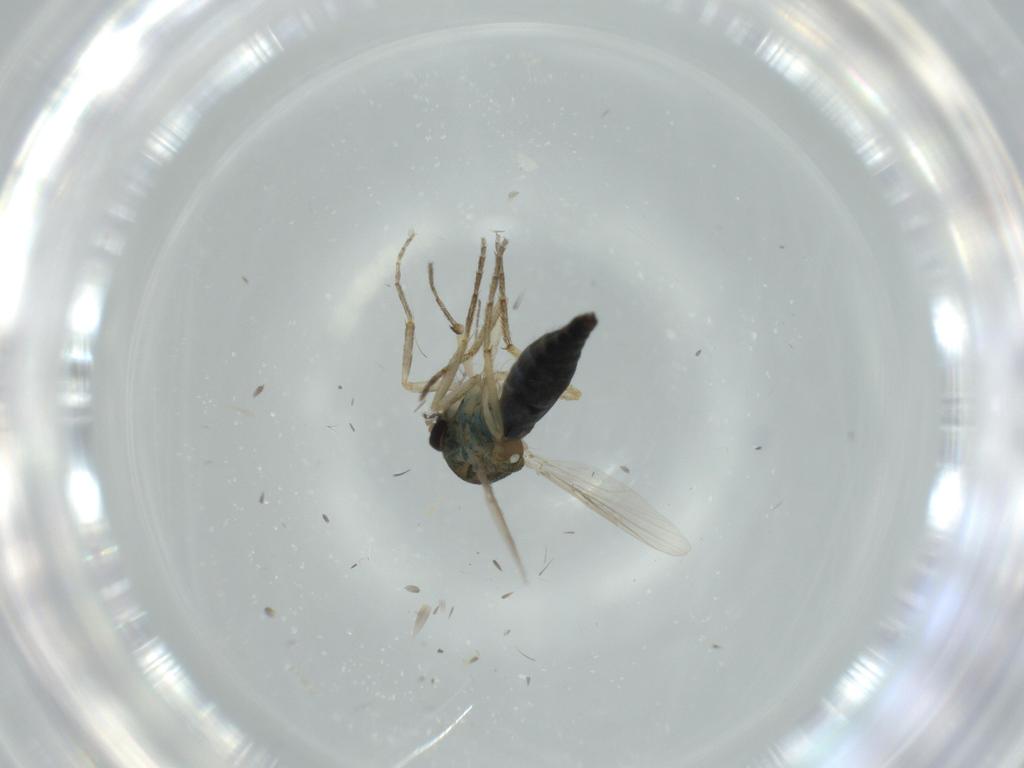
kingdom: Animalia
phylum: Arthropoda
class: Insecta
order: Diptera
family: Ceratopogonidae
